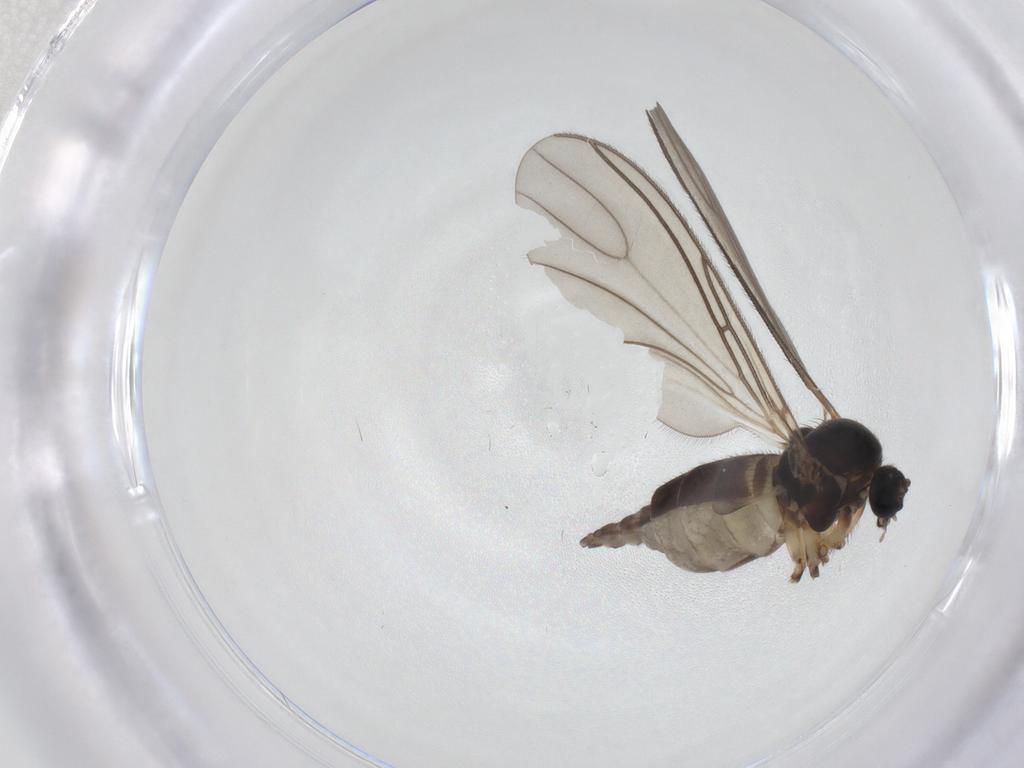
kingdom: Animalia
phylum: Arthropoda
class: Insecta
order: Diptera
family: Sciaridae
